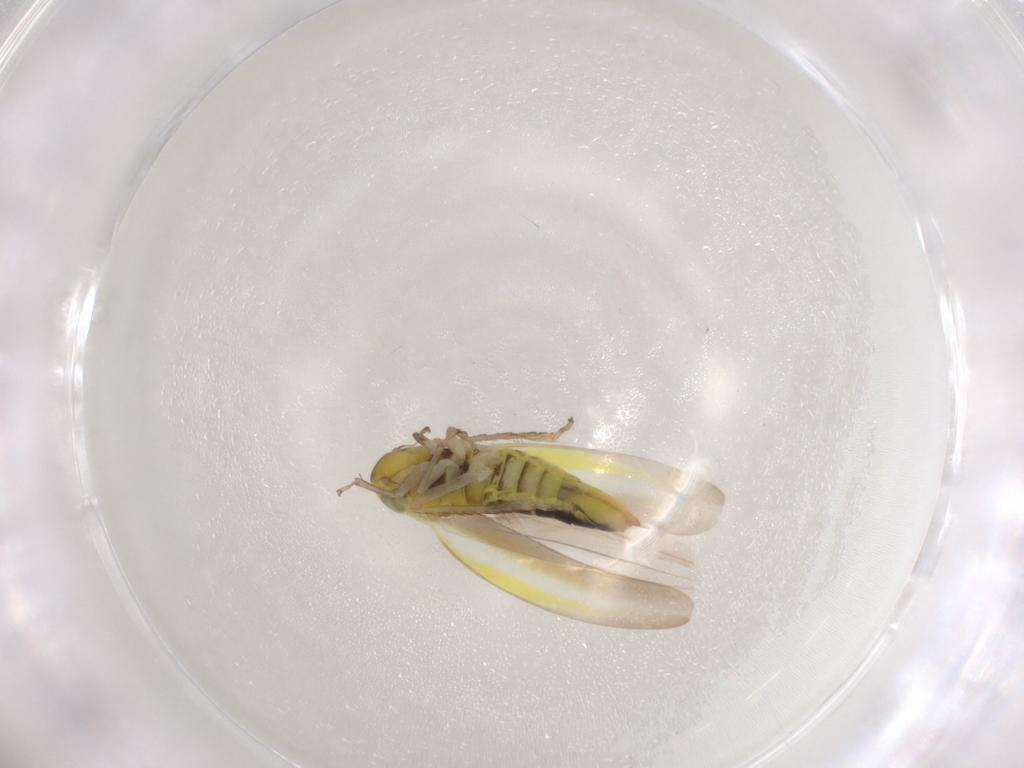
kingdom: Animalia
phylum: Arthropoda
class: Insecta
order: Hemiptera
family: Cicadellidae
